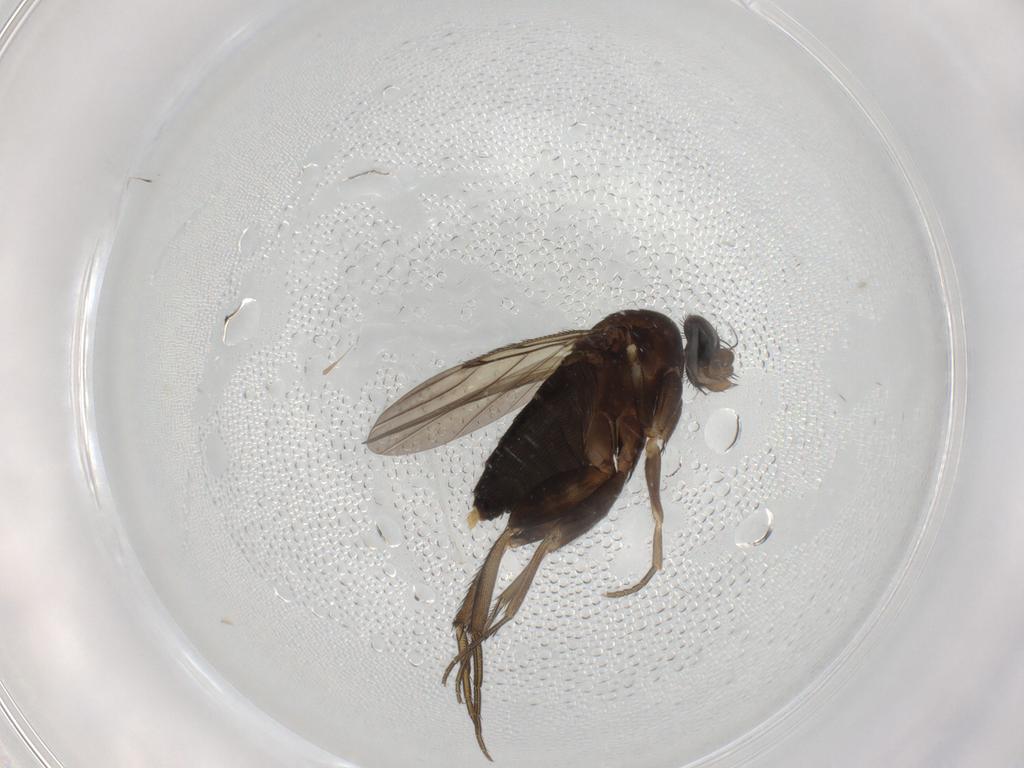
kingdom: Animalia
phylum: Arthropoda
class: Insecta
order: Diptera
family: Phoridae
